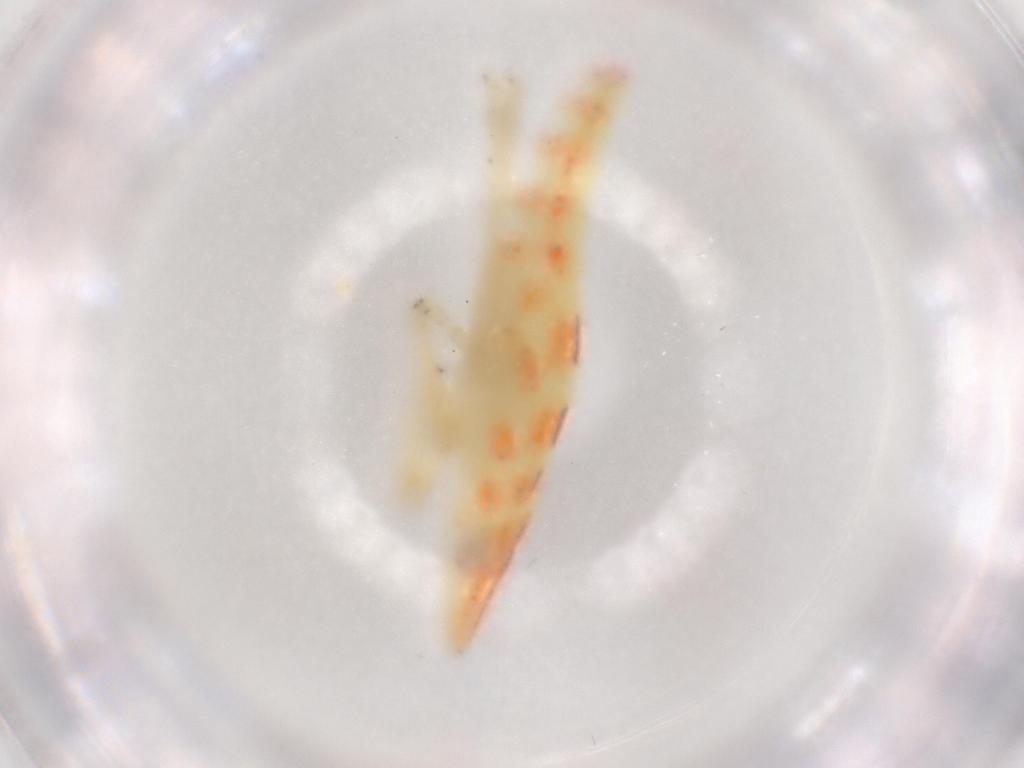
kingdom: Animalia
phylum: Arthropoda
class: Insecta
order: Hemiptera
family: Tropiduchidae
